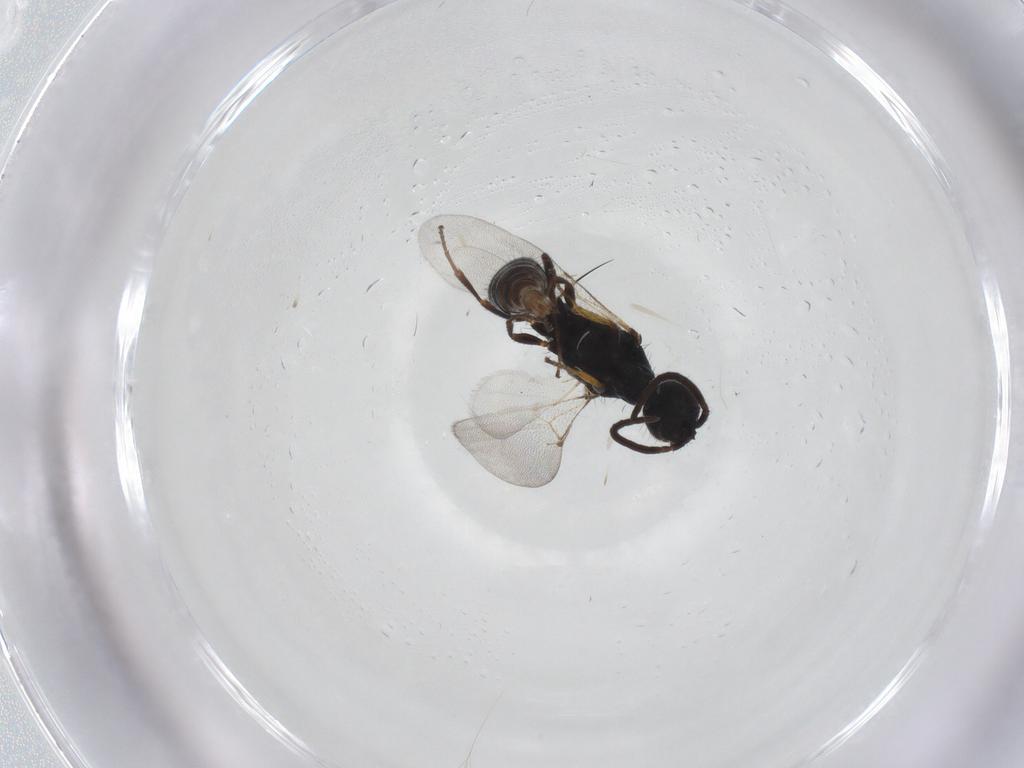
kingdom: Animalia
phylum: Arthropoda
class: Insecta
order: Hymenoptera
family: Bethylidae
